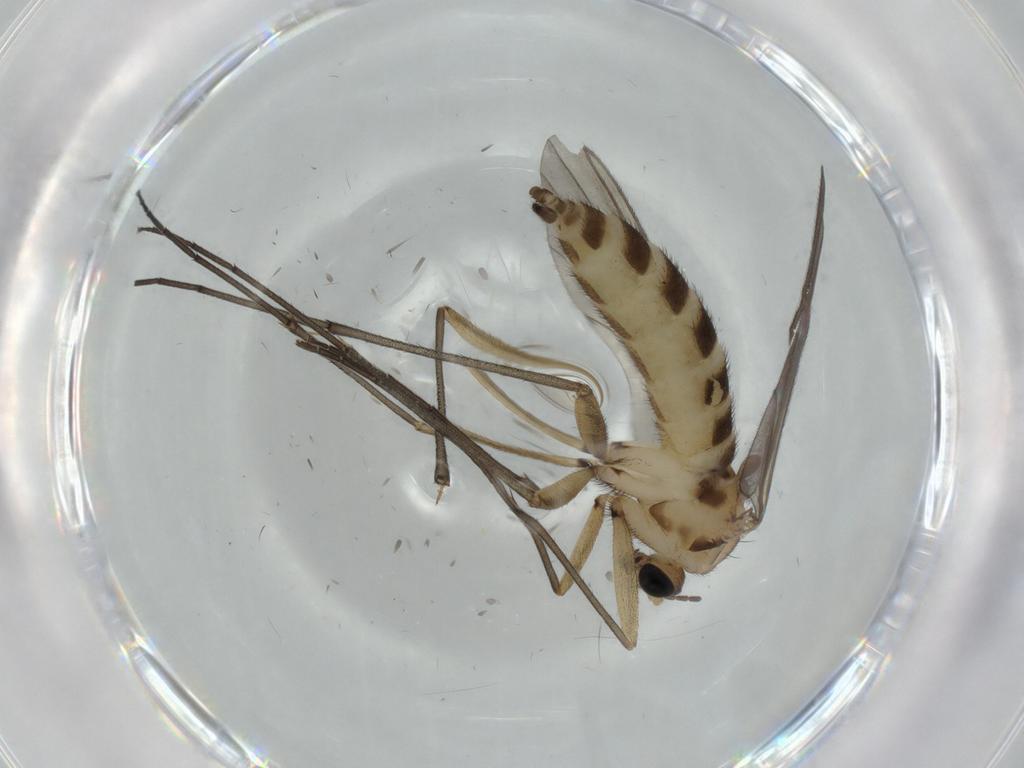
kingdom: Animalia
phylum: Arthropoda
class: Insecta
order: Diptera
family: Sciaridae
